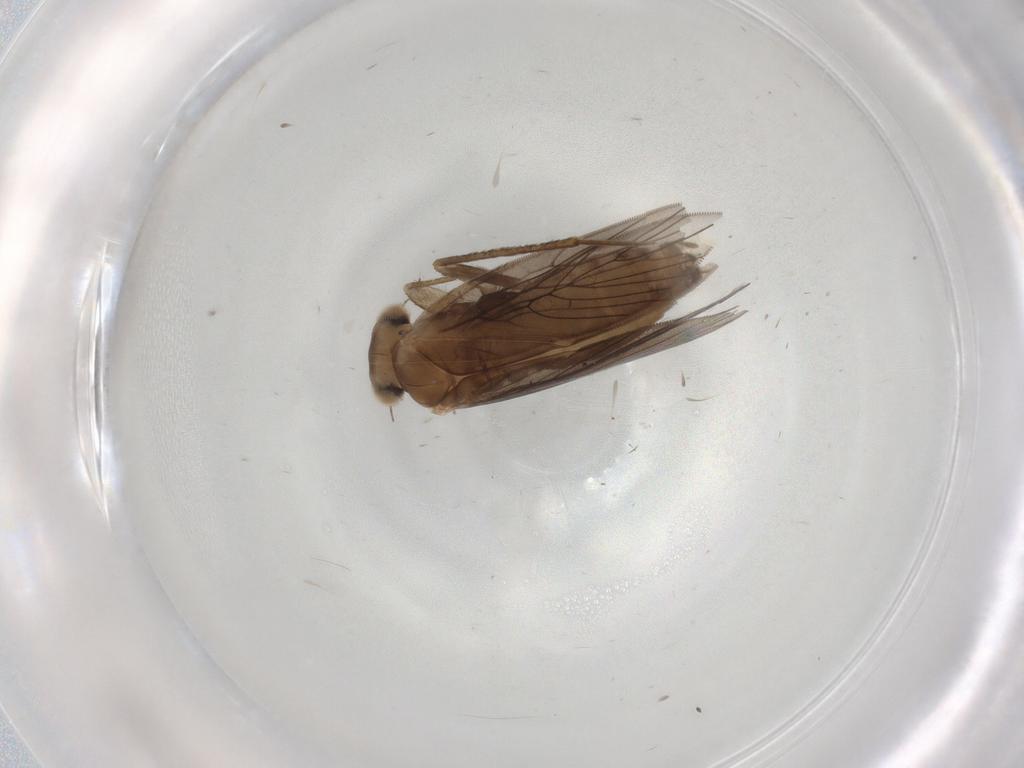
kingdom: Animalia
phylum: Arthropoda
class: Insecta
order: Psocodea
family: Lepidopsocidae
